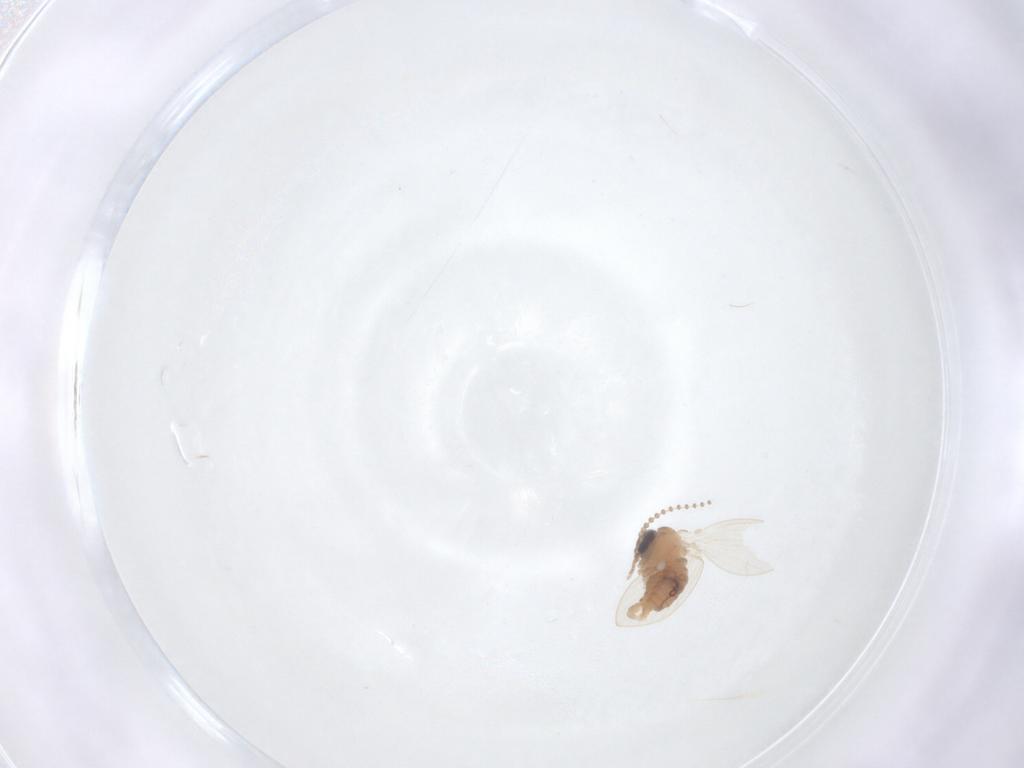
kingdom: Animalia
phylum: Arthropoda
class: Insecta
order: Diptera
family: Psychodidae
